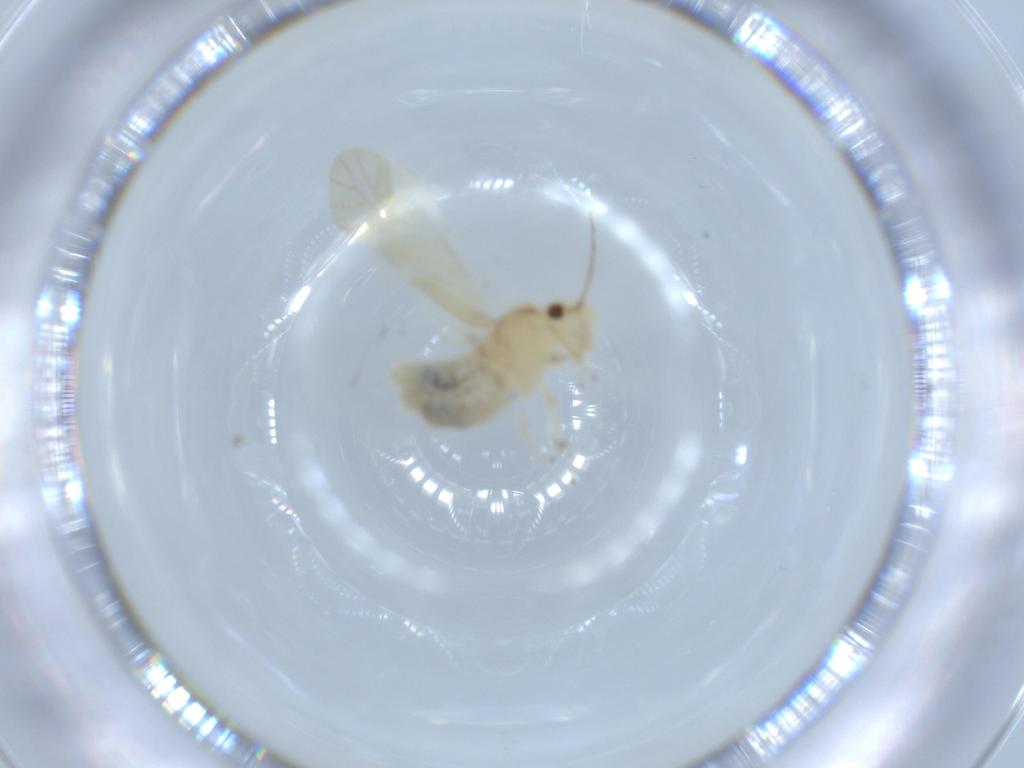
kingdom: Animalia
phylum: Arthropoda
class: Insecta
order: Psocodea
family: Caeciliusidae
